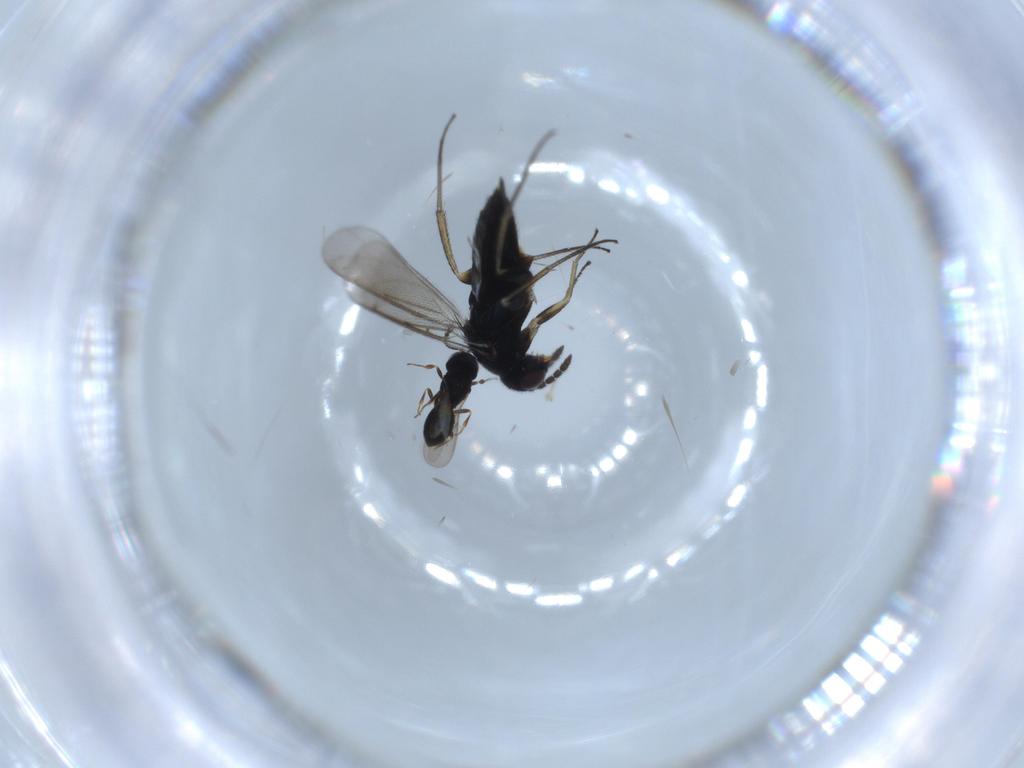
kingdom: Animalia
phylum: Arthropoda
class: Insecta
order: Hymenoptera
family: Scelionidae
